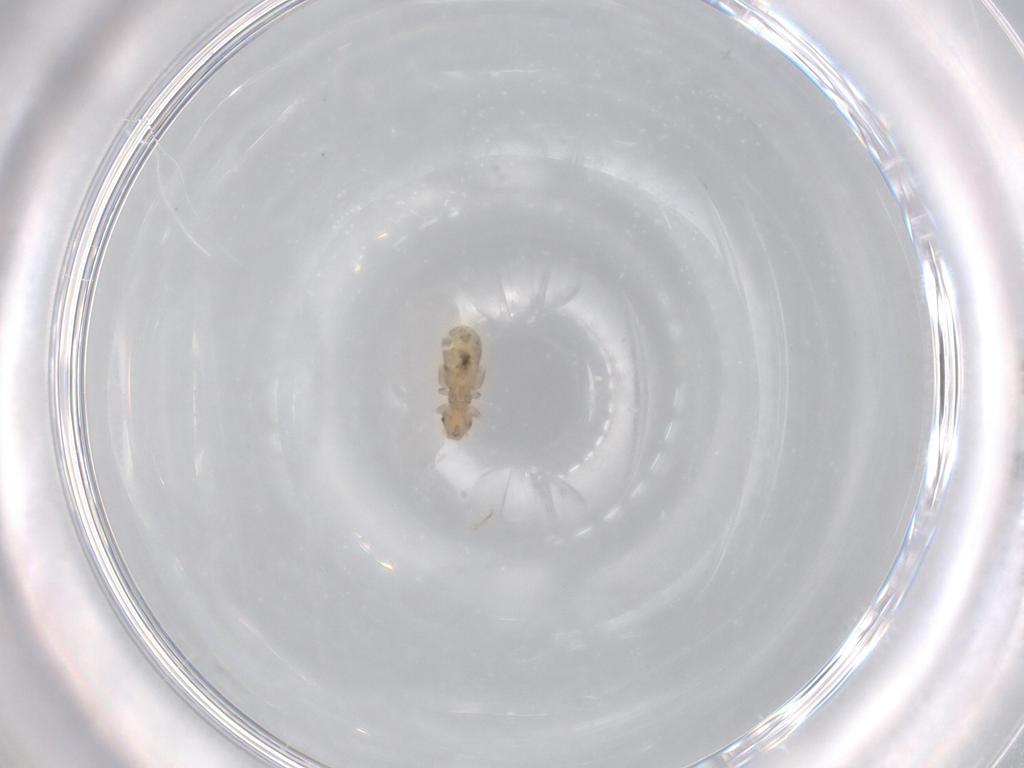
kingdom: Animalia
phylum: Arthropoda
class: Insecta
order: Psocodea
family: Liposcelididae
